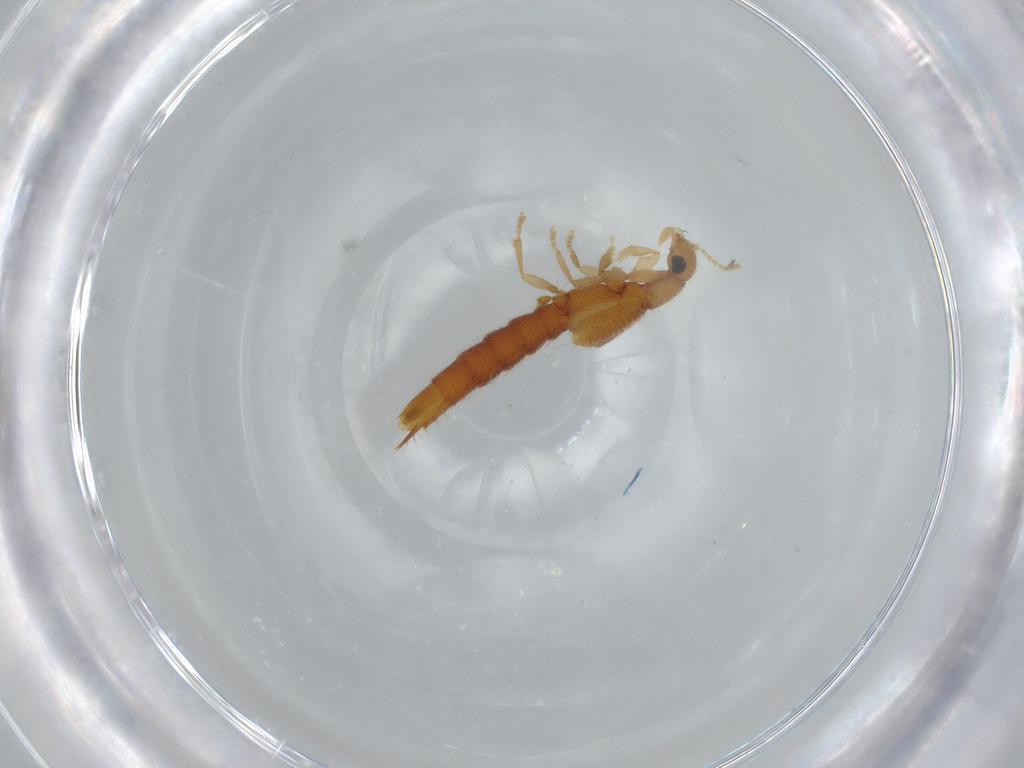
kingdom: Animalia
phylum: Arthropoda
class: Insecta
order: Coleoptera
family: Staphylinidae
